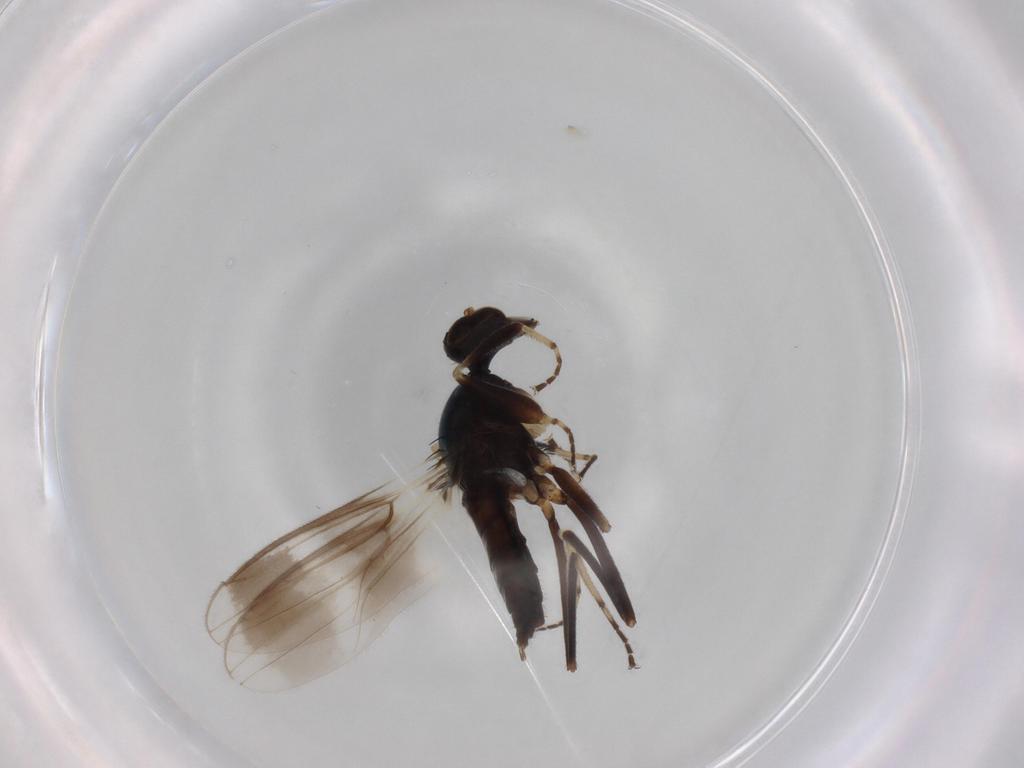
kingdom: Animalia
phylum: Arthropoda
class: Insecta
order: Diptera
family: Hybotidae
